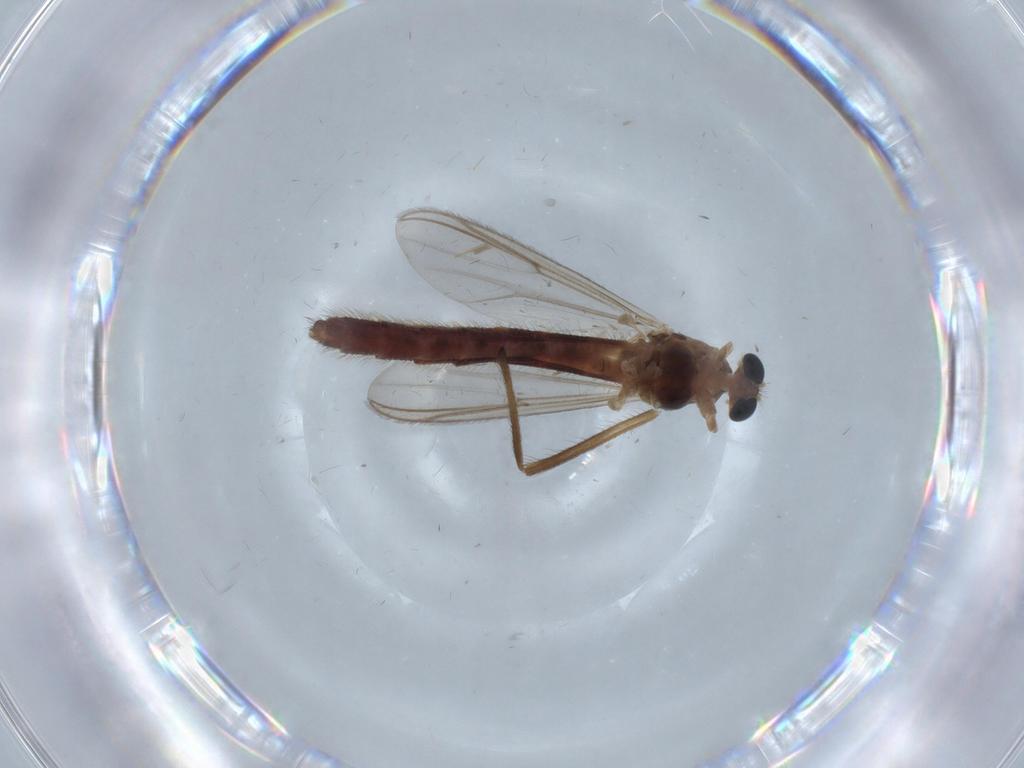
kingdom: Animalia
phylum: Arthropoda
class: Insecta
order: Diptera
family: Chironomidae
